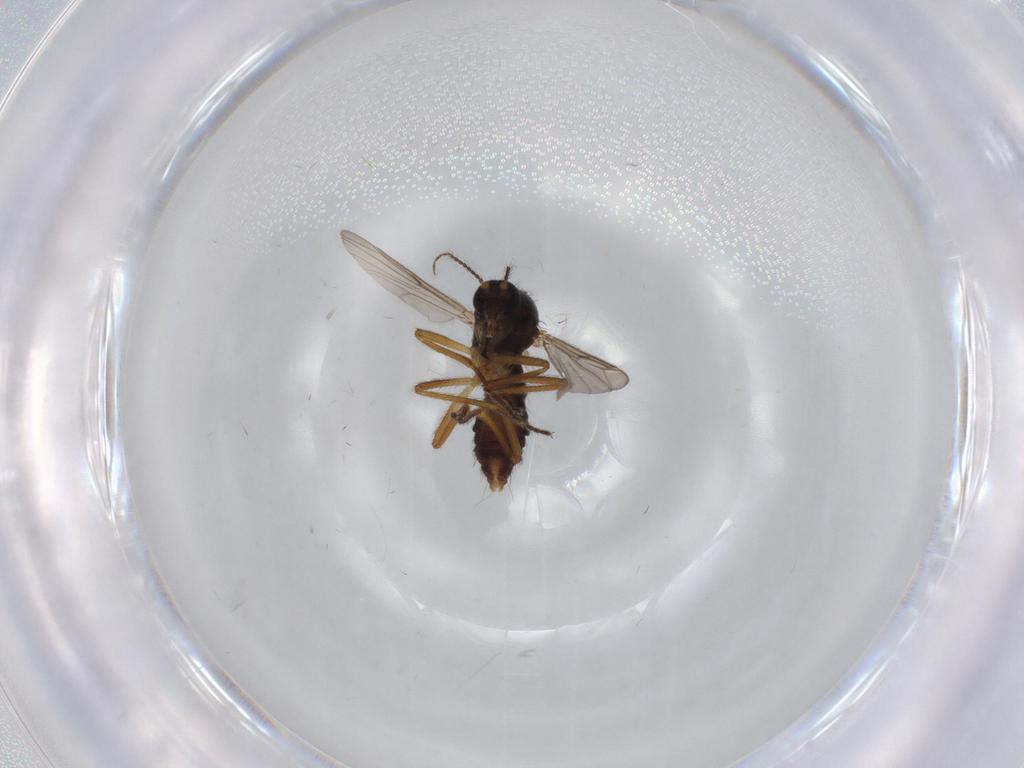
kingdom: Animalia
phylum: Arthropoda
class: Insecta
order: Diptera
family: Ceratopogonidae
